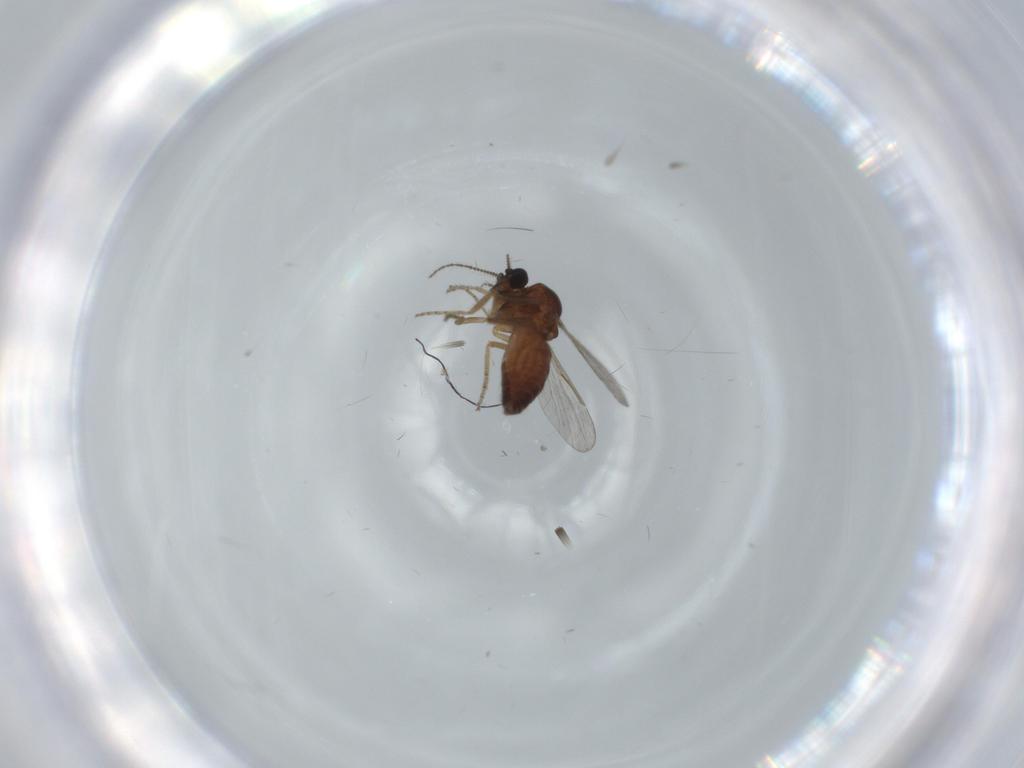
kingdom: Animalia
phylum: Arthropoda
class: Insecta
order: Diptera
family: Ceratopogonidae
